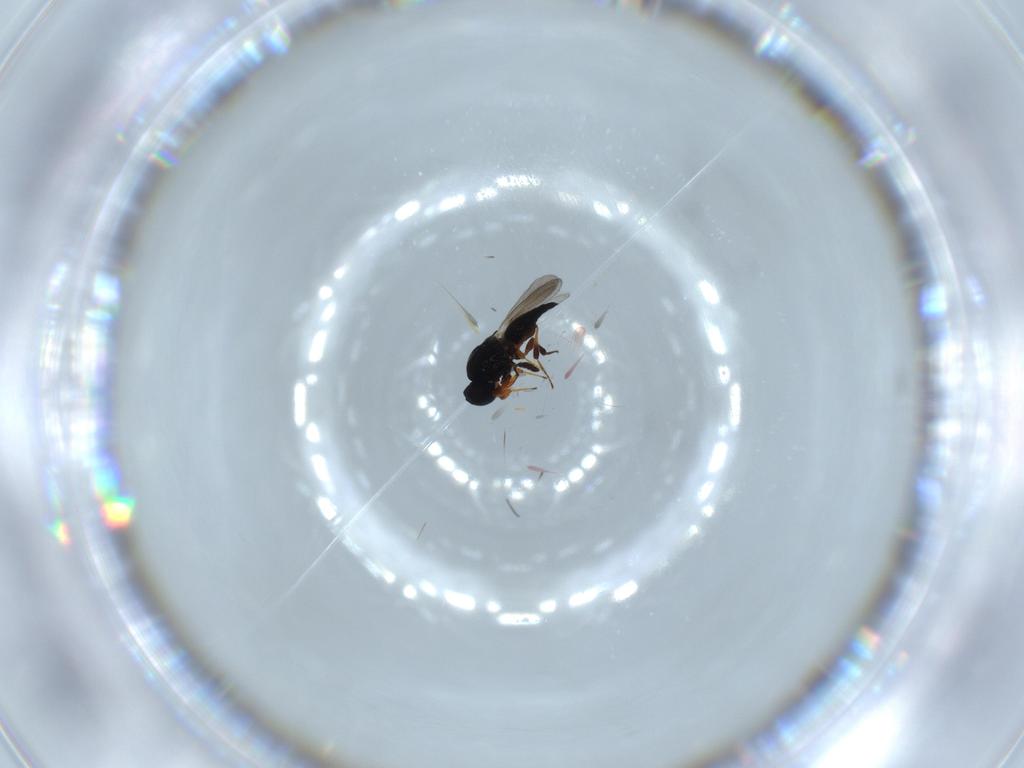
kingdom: Animalia
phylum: Arthropoda
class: Insecta
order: Hymenoptera
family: Platygastridae
